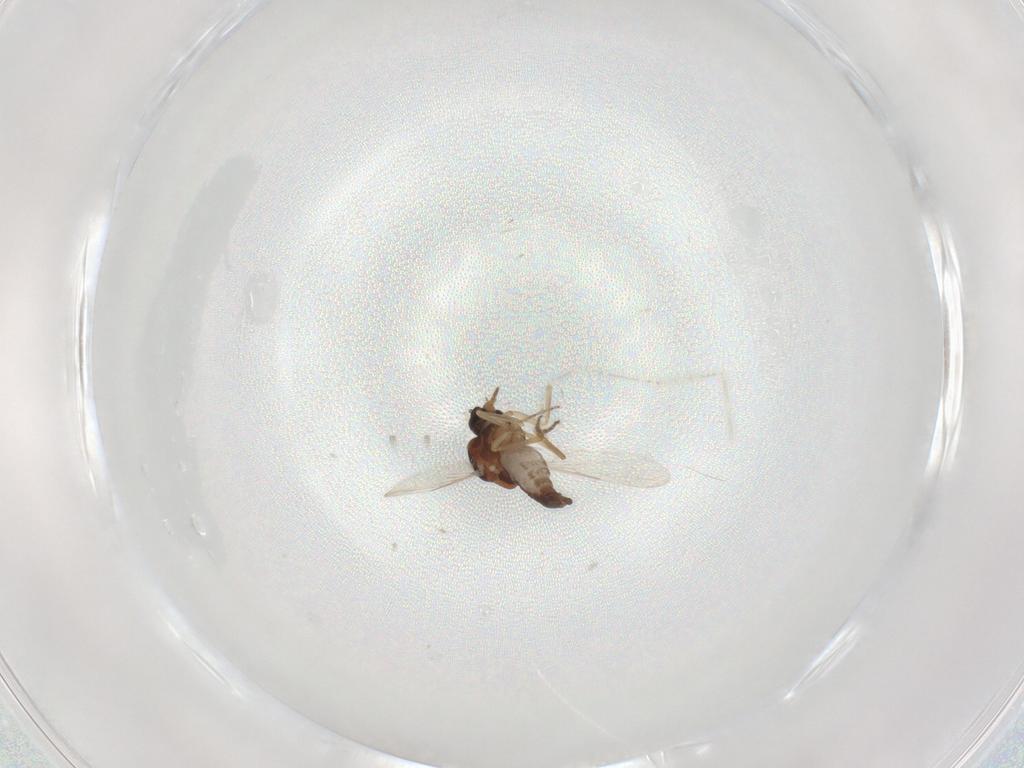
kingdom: Animalia
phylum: Arthropoda
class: Insecta
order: Diptera
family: Ceratopogonidae
